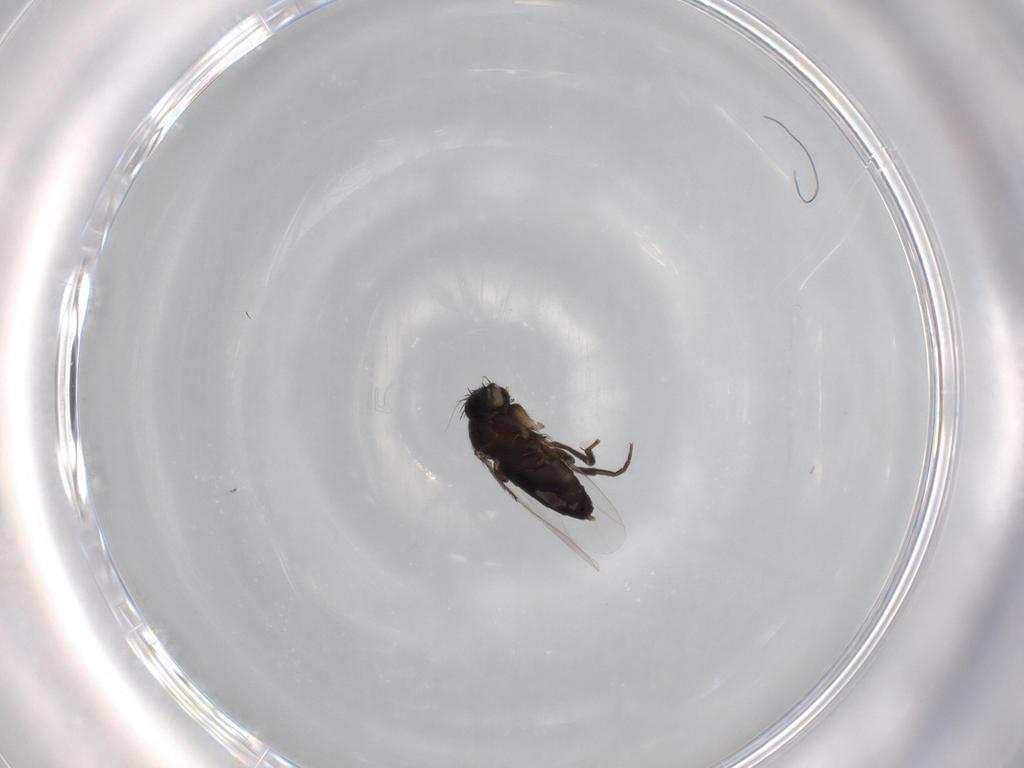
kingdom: Animalia
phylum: Arthropoda
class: Insecta
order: Diptera
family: Phoridae
